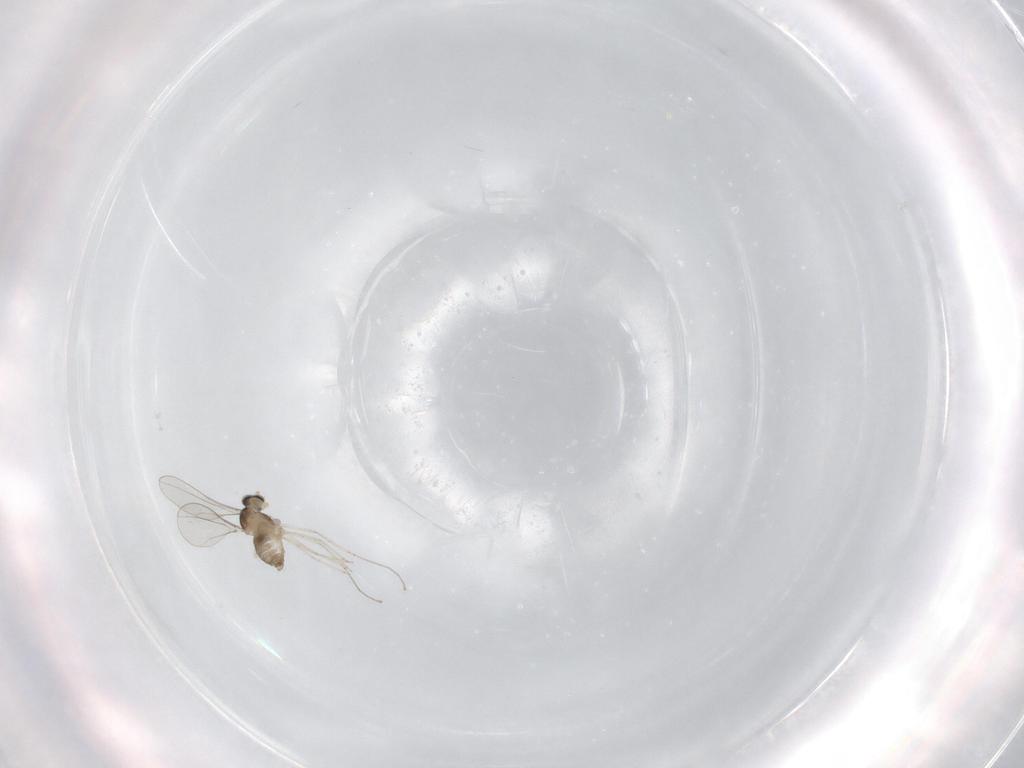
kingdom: Animalia
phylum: Arthropoda
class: Insecta
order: Diptera
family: Cecidomyiidae
